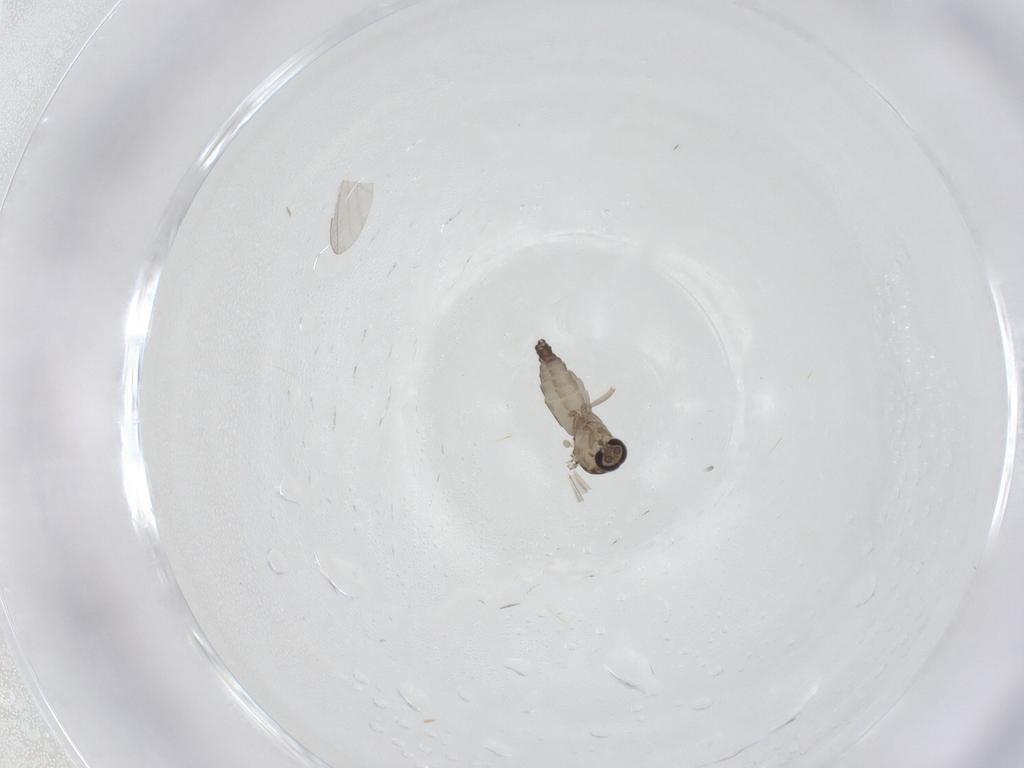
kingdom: Animalia
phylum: Arthropoda
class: Insecta
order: Diptera
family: Ceratopogonidae
